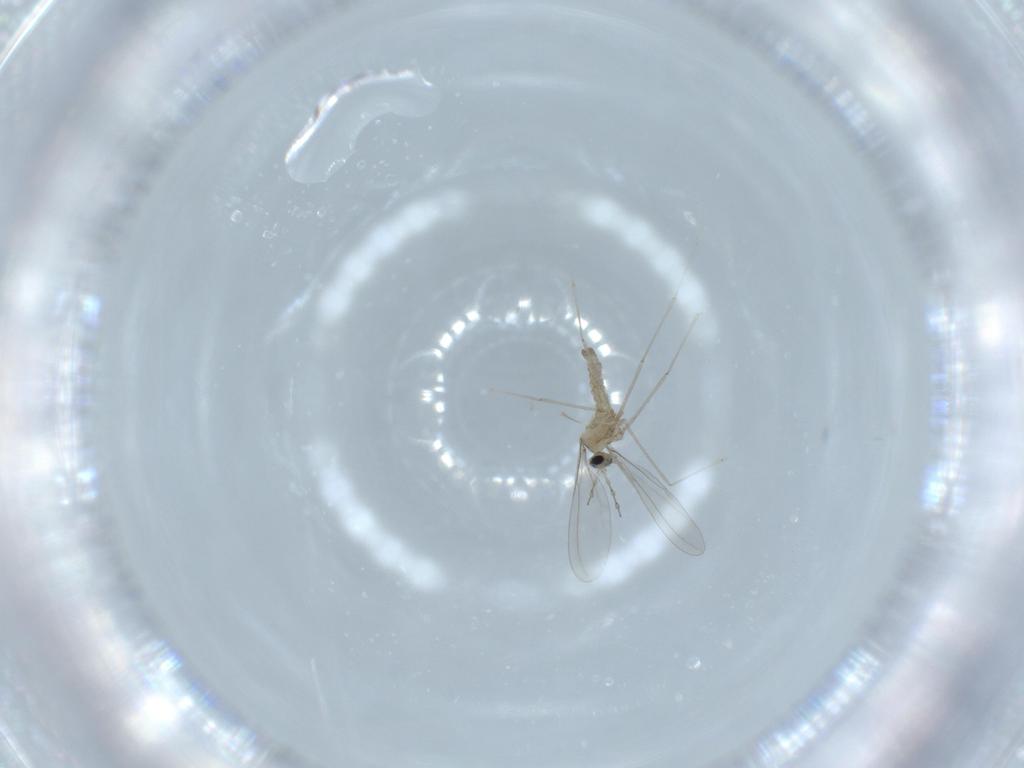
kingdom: Animalia
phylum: Arthropoda
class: Insecta
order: Diptera
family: Cecidomyiidae
